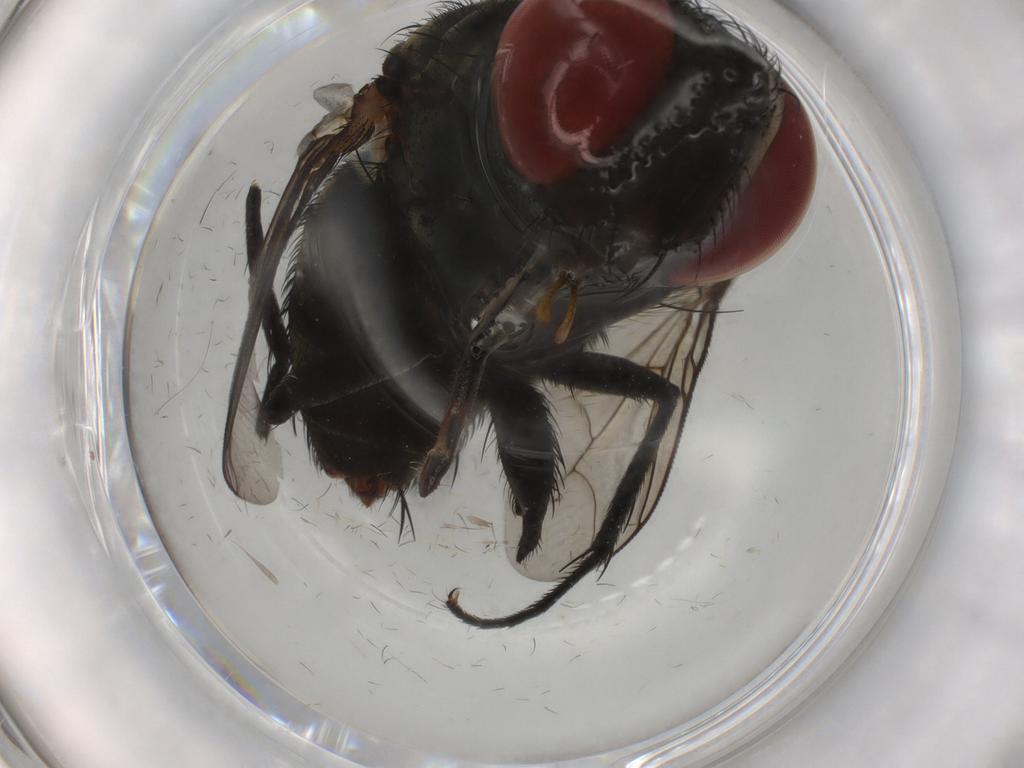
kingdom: Animalia
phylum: Arthropoda
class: Insecta
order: Diptera
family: Sarcophagidae
